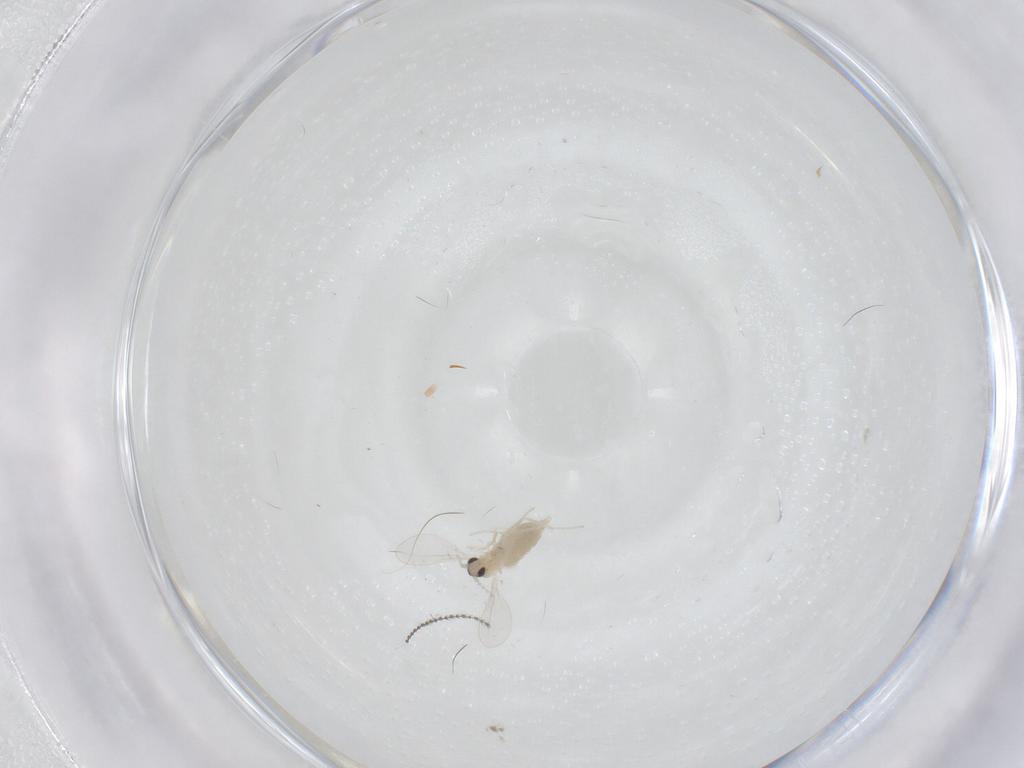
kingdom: Animalia
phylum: Arthropoda
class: Insecta
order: Diptera
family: Cecidomyiidae
